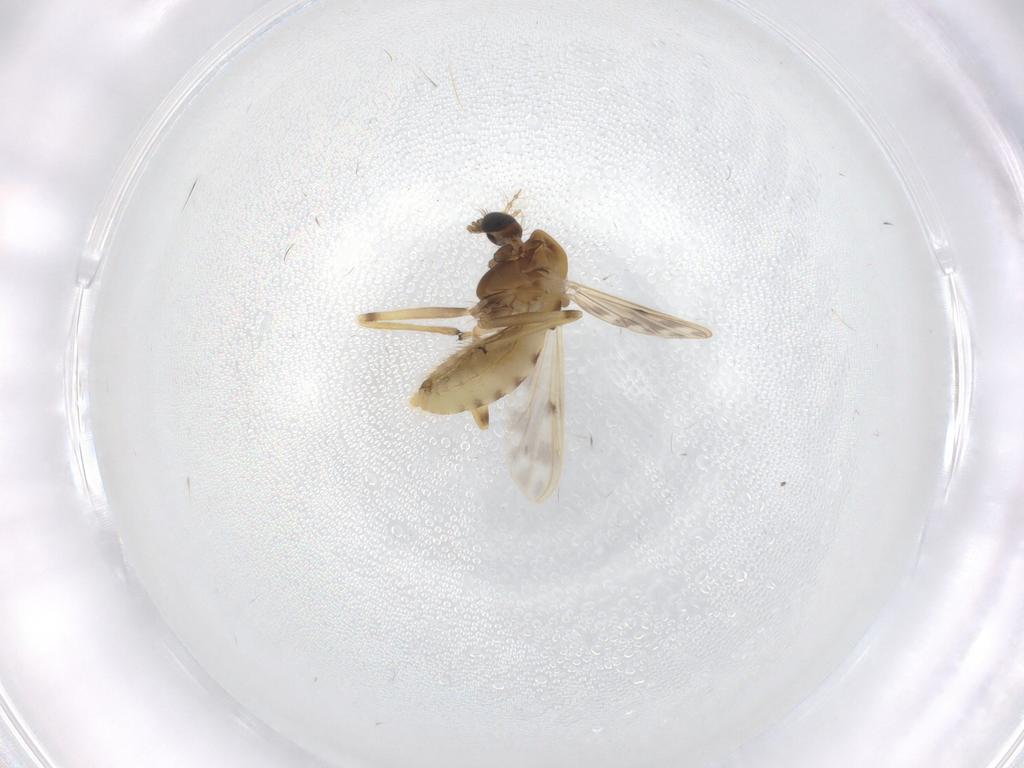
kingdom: Animalia
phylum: Arthropoda
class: Insecta
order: Diptera
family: Chironomidae
